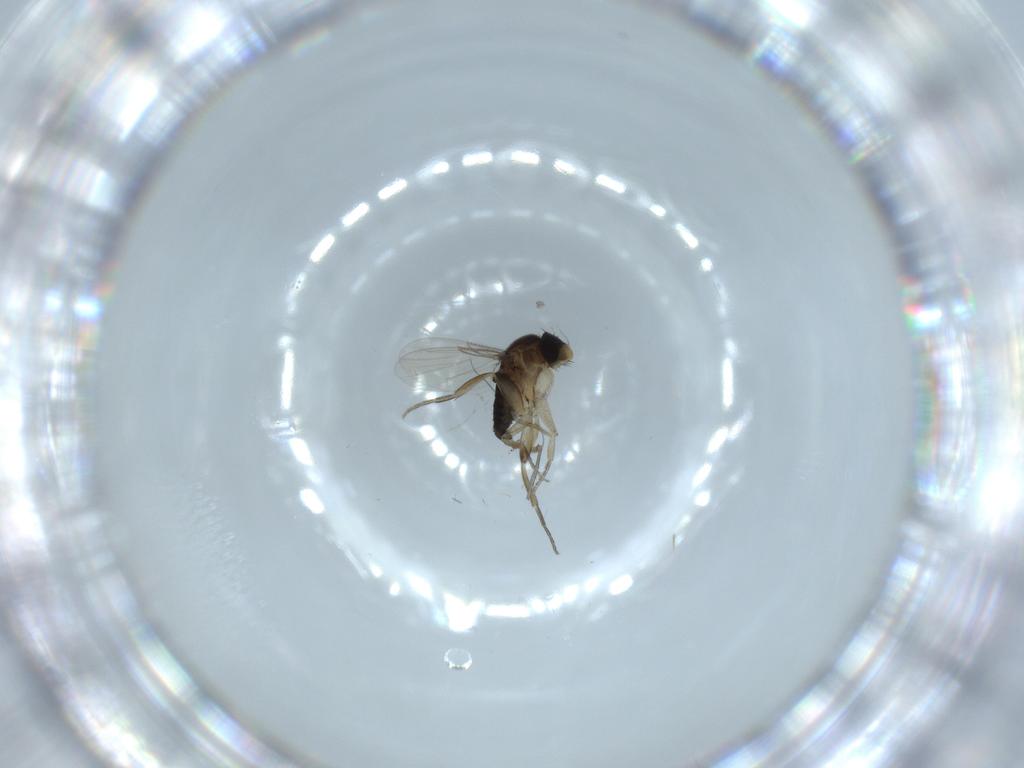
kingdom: Animalia
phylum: Arthropoda
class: Insecta
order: Diptera
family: Phoridae
